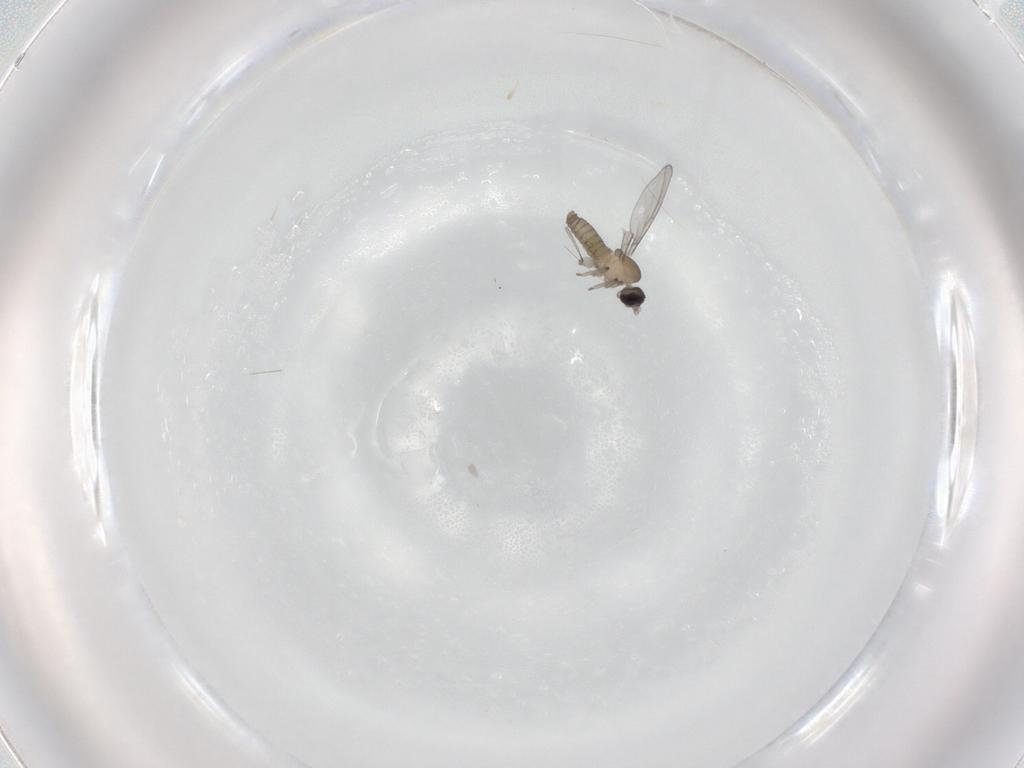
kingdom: Animalia
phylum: Arthropoda
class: Insecta
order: Diptera
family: Cecidomyiidae
